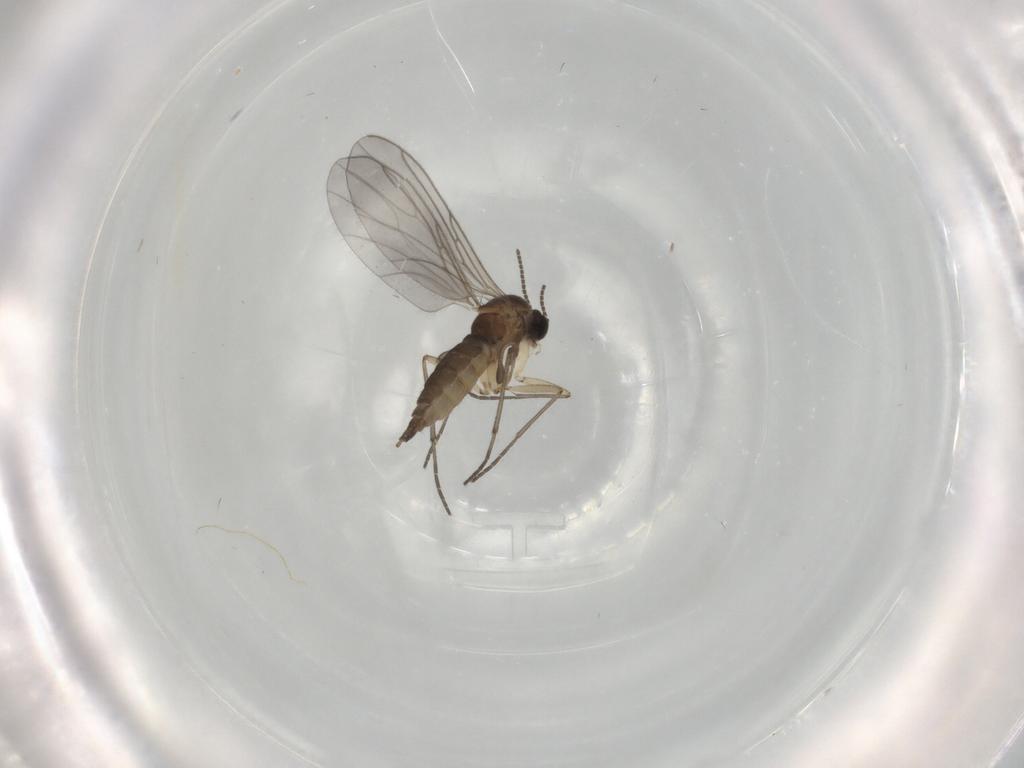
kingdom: Animalia
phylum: Arthropoda
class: Insecta
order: Diptera
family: Sciaridae
